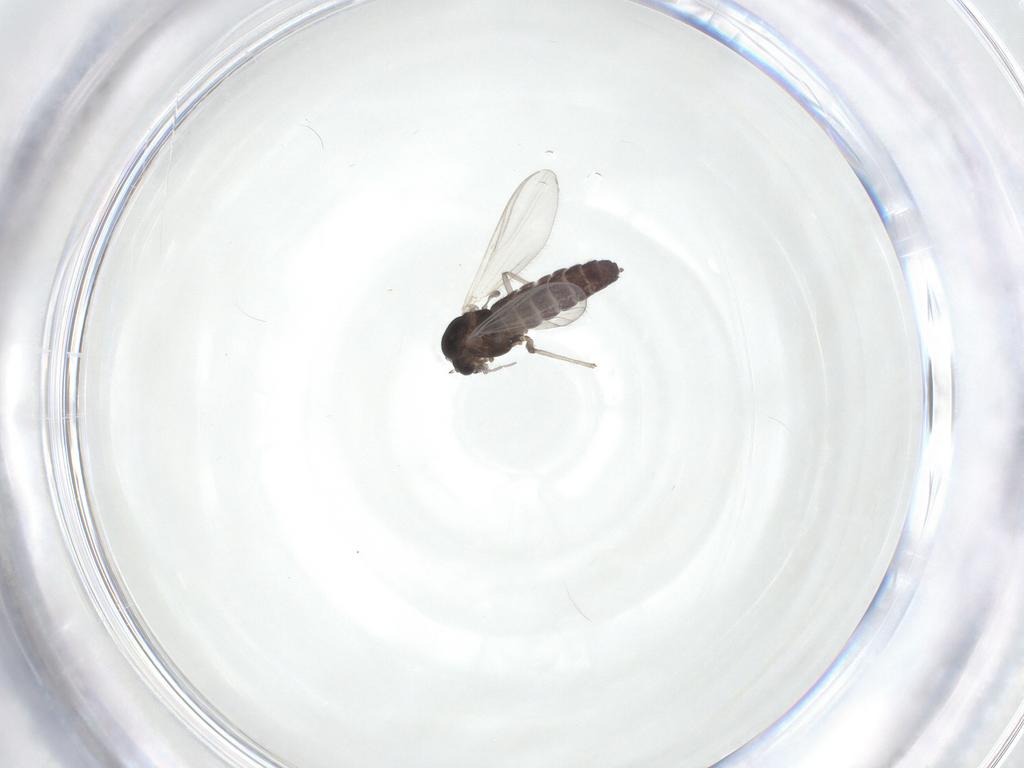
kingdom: Animalia
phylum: Arthropoda
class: Insecta
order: Diptera
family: Chironomidae
